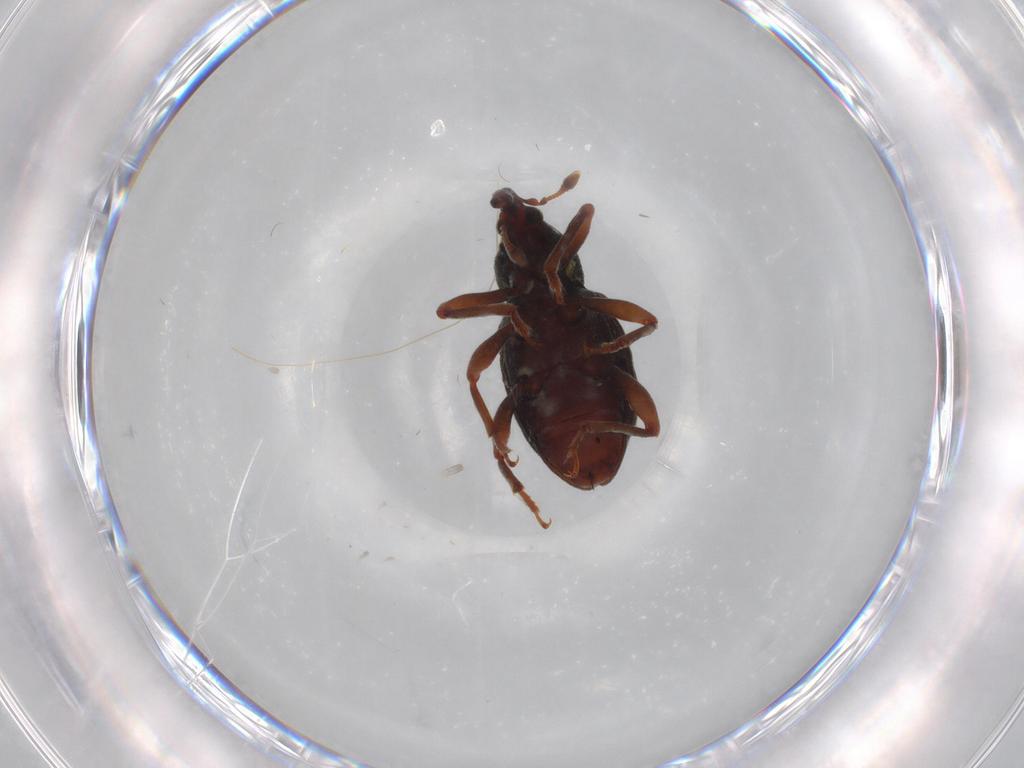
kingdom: Animalia
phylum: Arthropoda
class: Insecta
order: Coleoptera
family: Curculionidae
